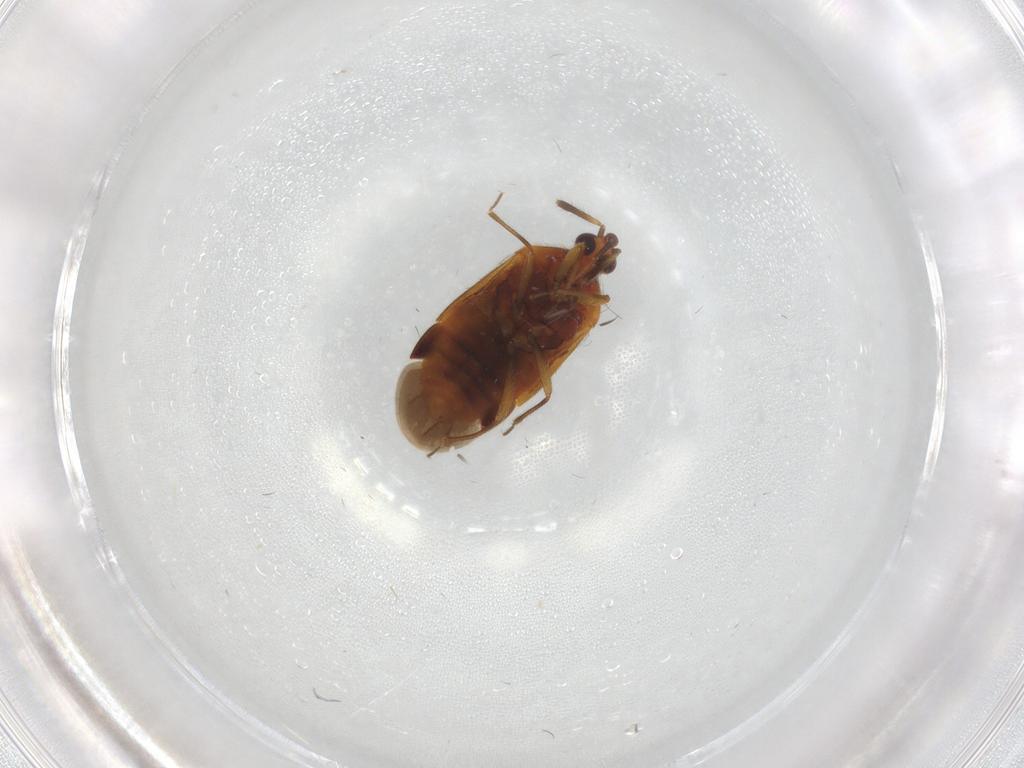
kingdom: Animalia
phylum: Arthropoda
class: Insecta
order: Hemiptera
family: Anthocoridae
